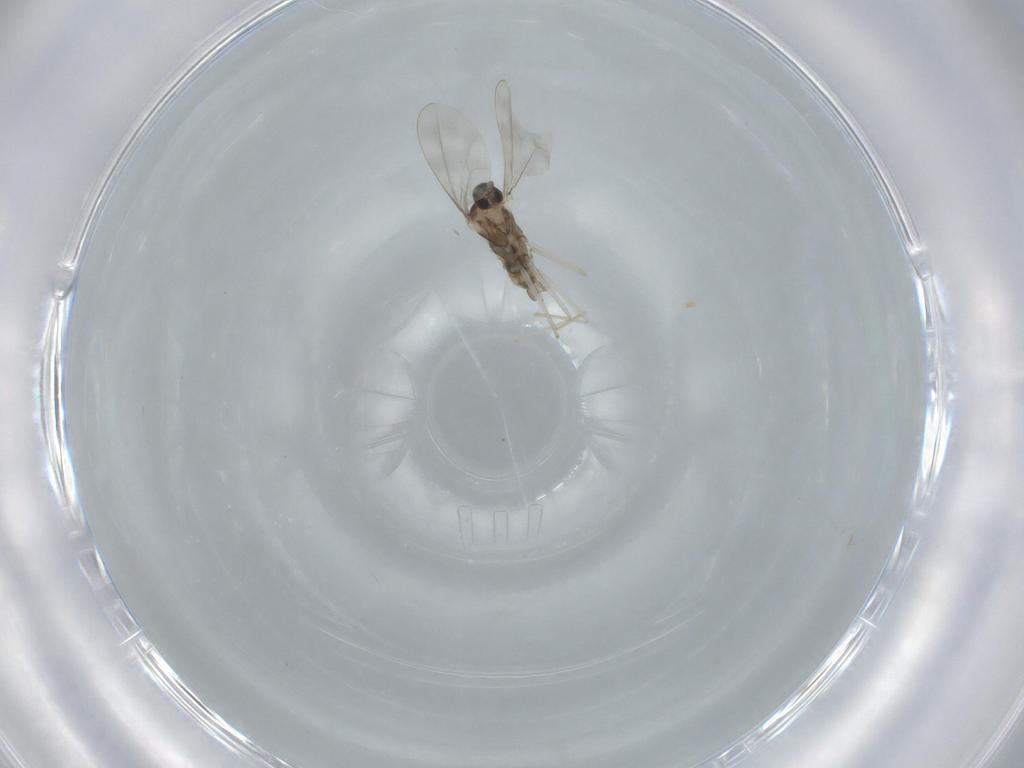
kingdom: Animalia
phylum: Arthropoda
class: Insecta
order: Diptera
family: Cecidomyiidae
